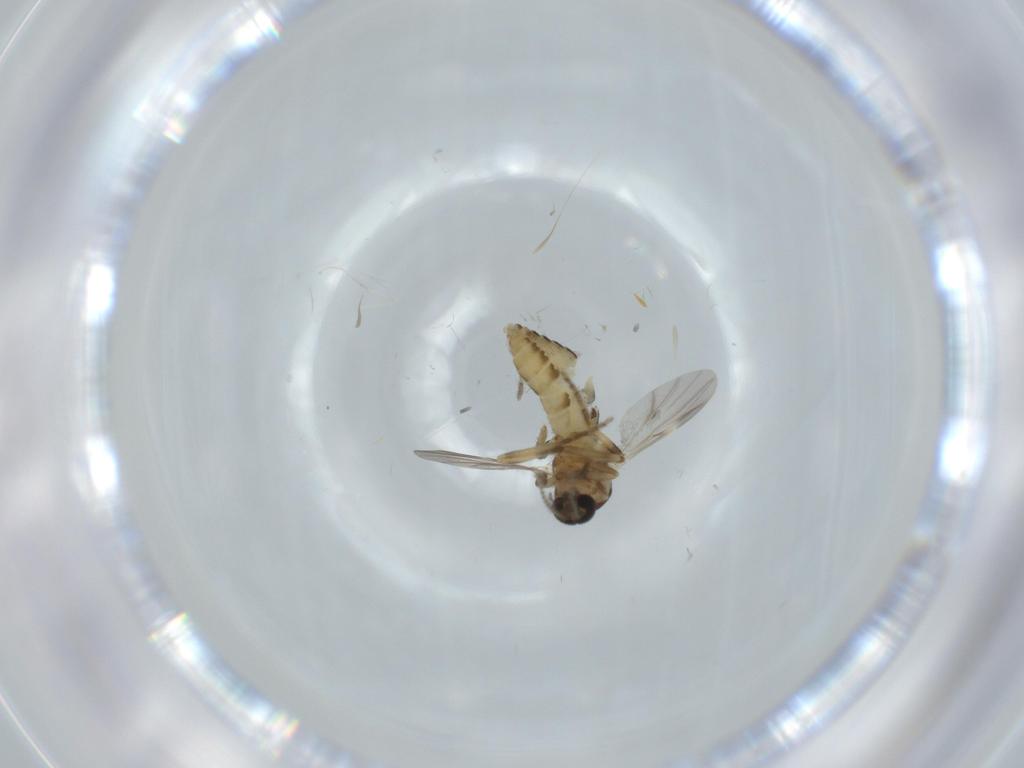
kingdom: Animalia
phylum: Arthropoda
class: Insecta
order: Diptera
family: Ceratopogonidae
